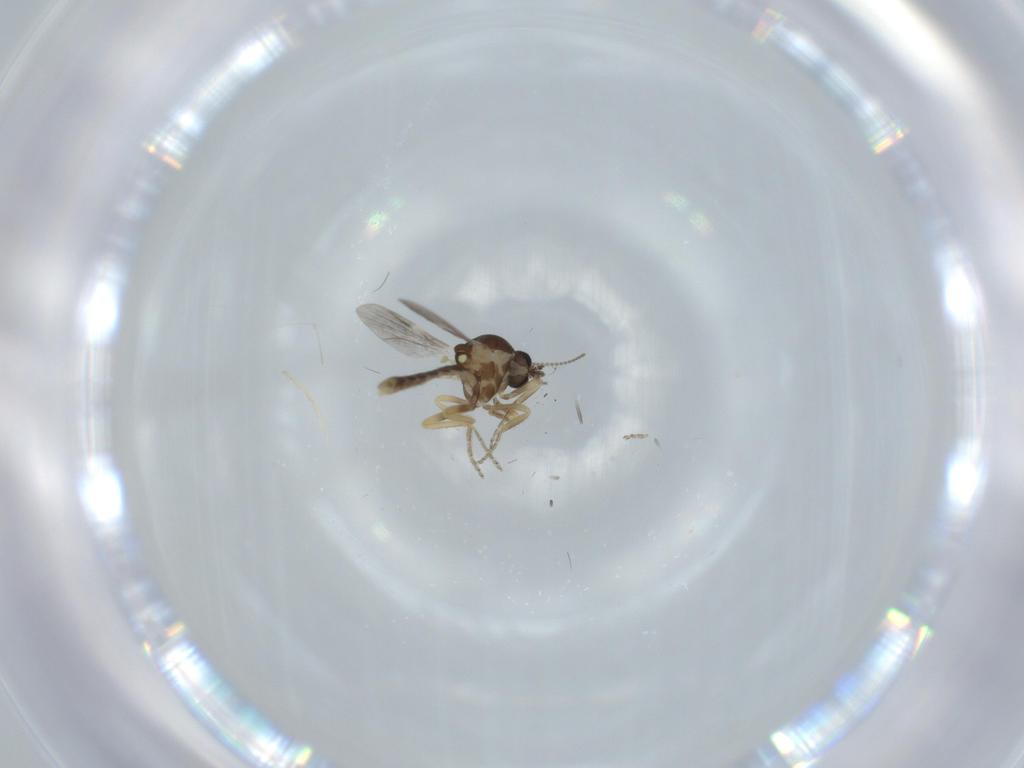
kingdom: Animalia
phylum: Arthropoda
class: Insecta
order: Diptera
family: Ceratopogonidae
